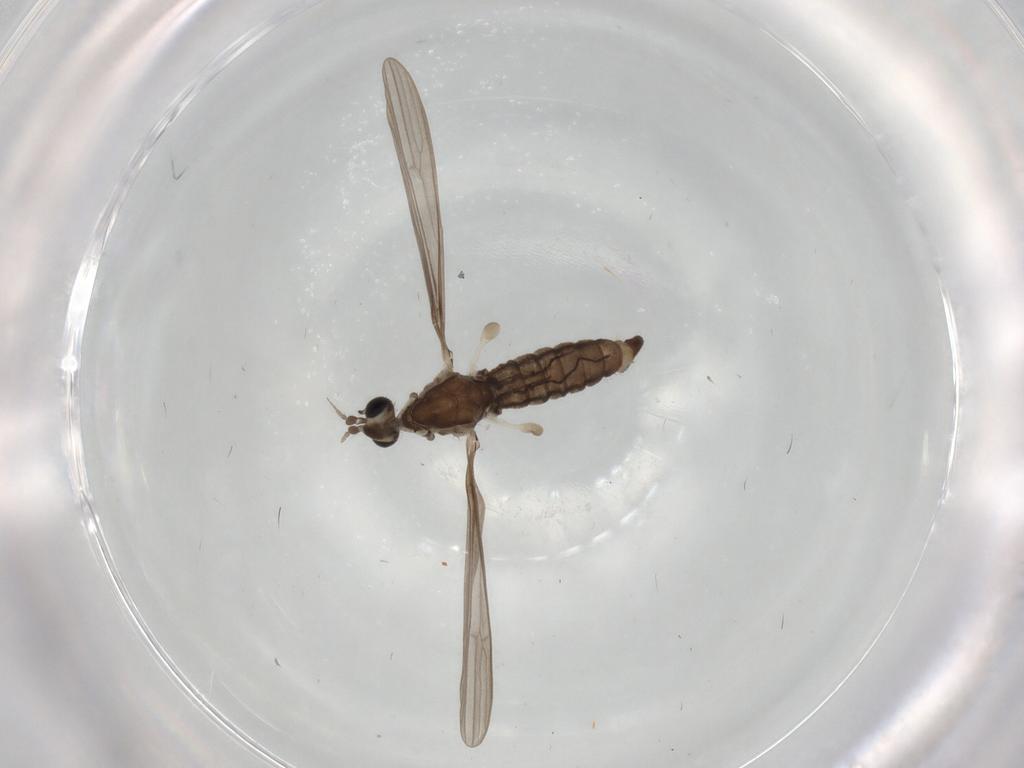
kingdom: Animalia
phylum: Arthropoda
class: Insecta
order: Diptera
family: Limoniidae
